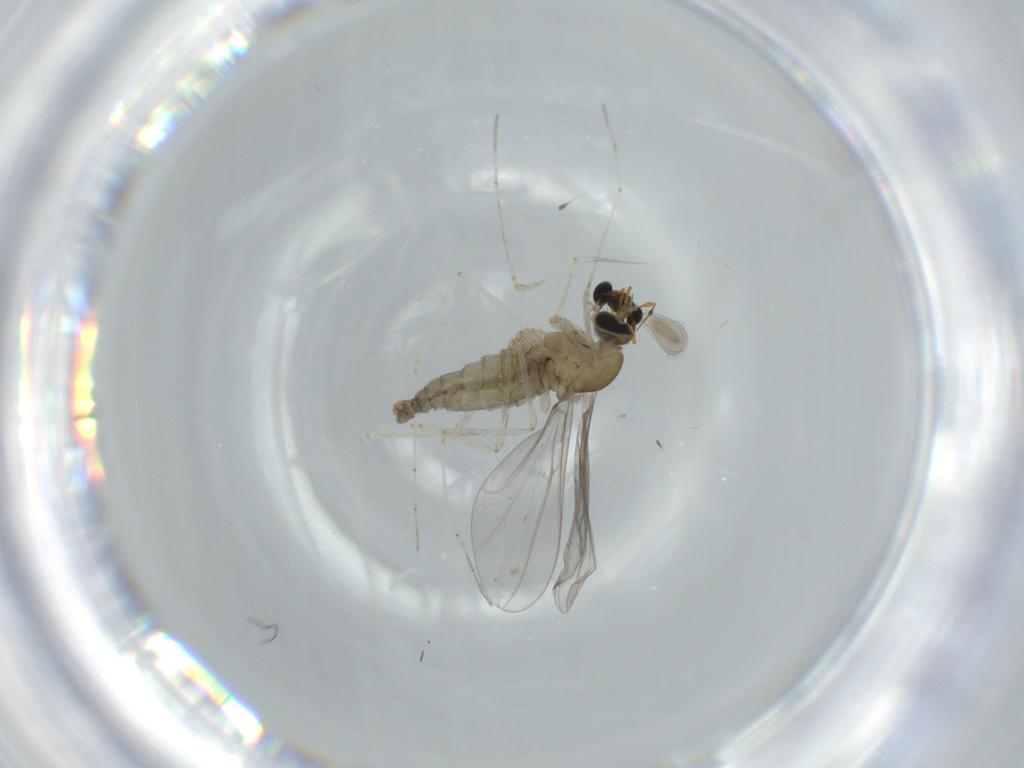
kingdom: Animalia
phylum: Arthropoda
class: Insecta
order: Diptera
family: Cecidomyiidae
